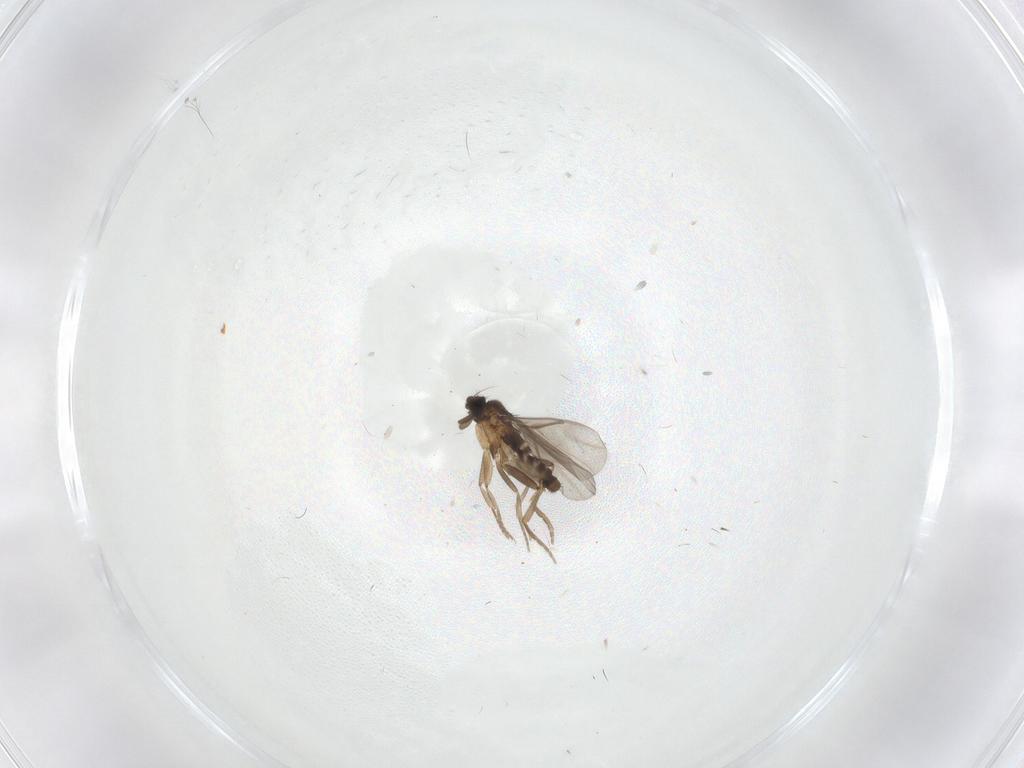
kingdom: Animalia
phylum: Arthropoda
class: Insecta
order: Diptera
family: Psychodidae
